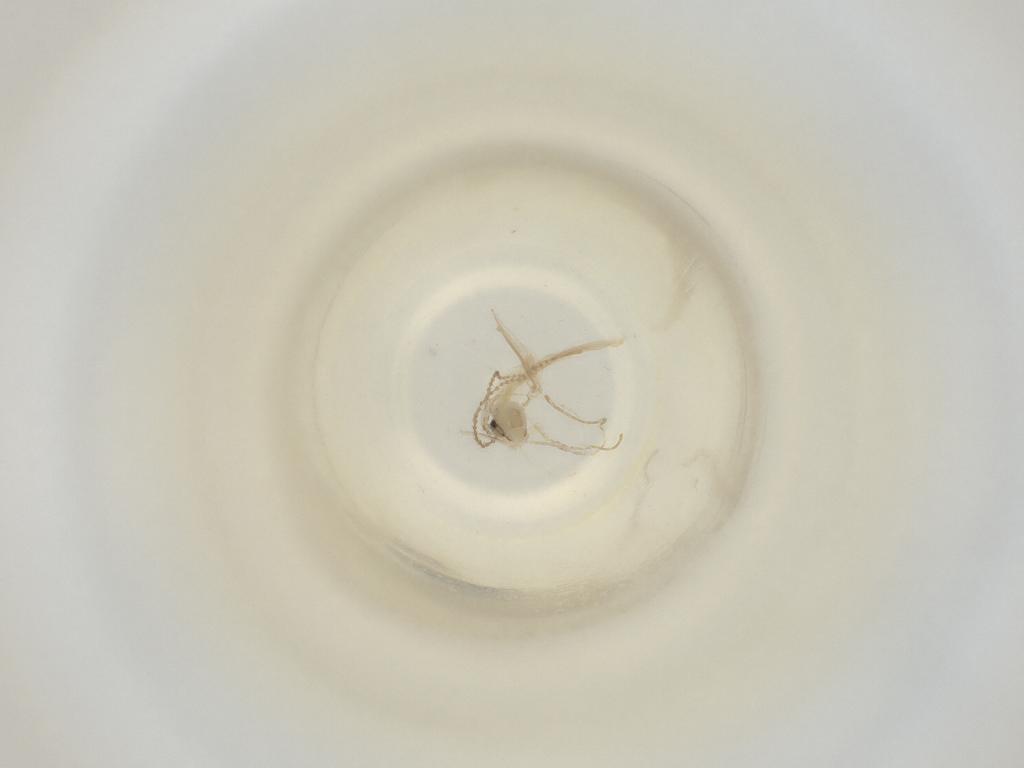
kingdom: Animalia
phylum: Arthropoda
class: Insecta
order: Diptera
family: Cecidomyiidae
